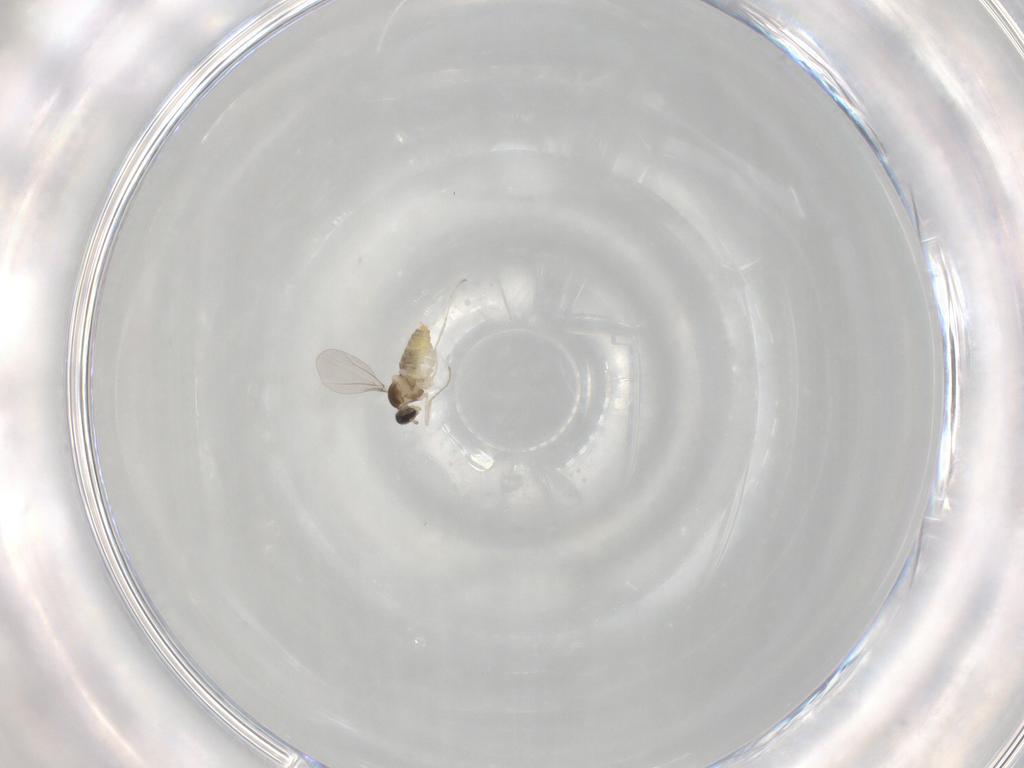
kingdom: Animalia
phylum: Arthropoda
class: Insecta
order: Diptera
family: Cecidomyiidae
